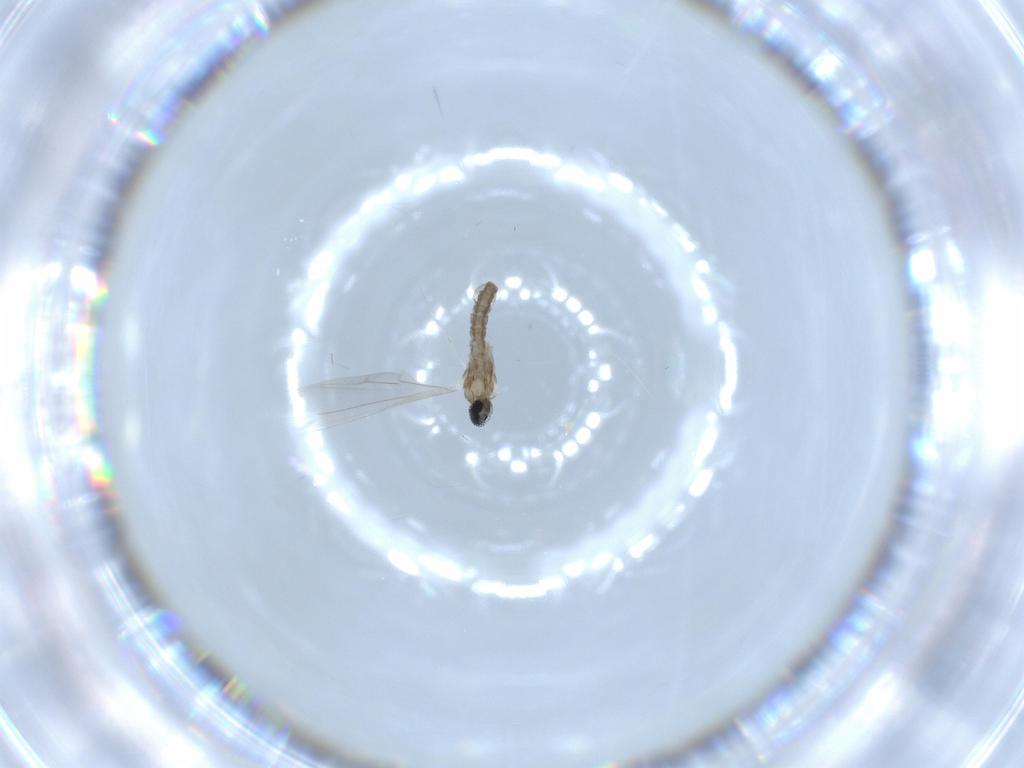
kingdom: Animalia
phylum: Arthropoda
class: Insecta
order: Diptera
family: Cecidomyiidae
